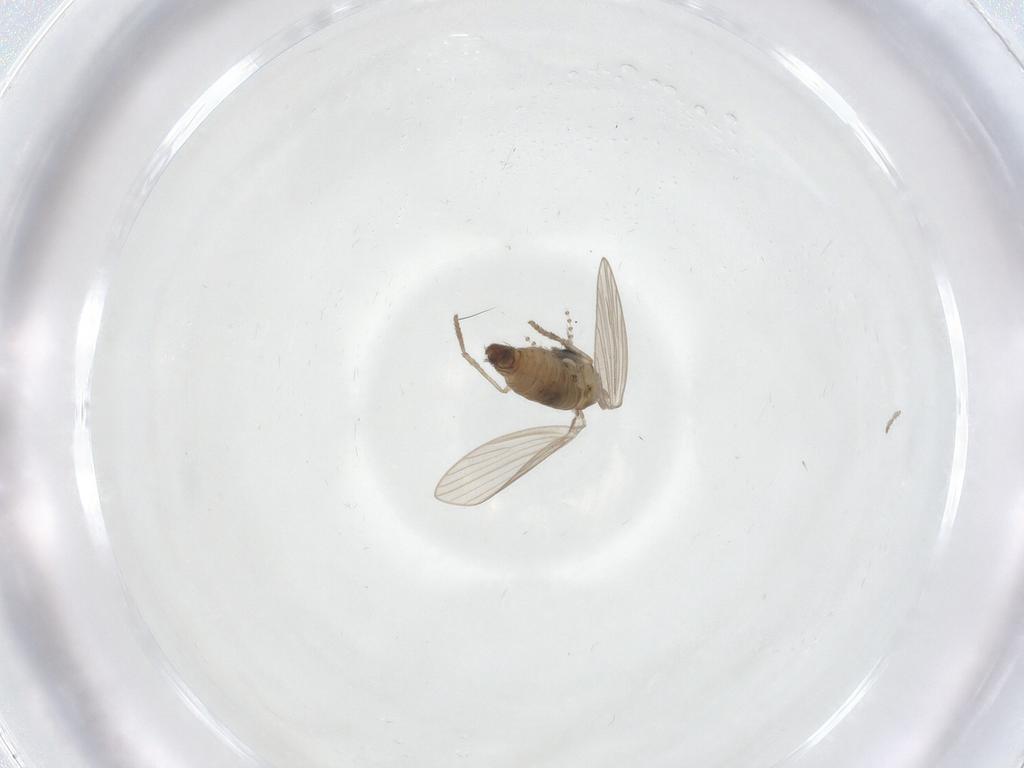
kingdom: Animalia
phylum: Arthropoda
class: Insecta
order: Diptera
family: Psychodidae
